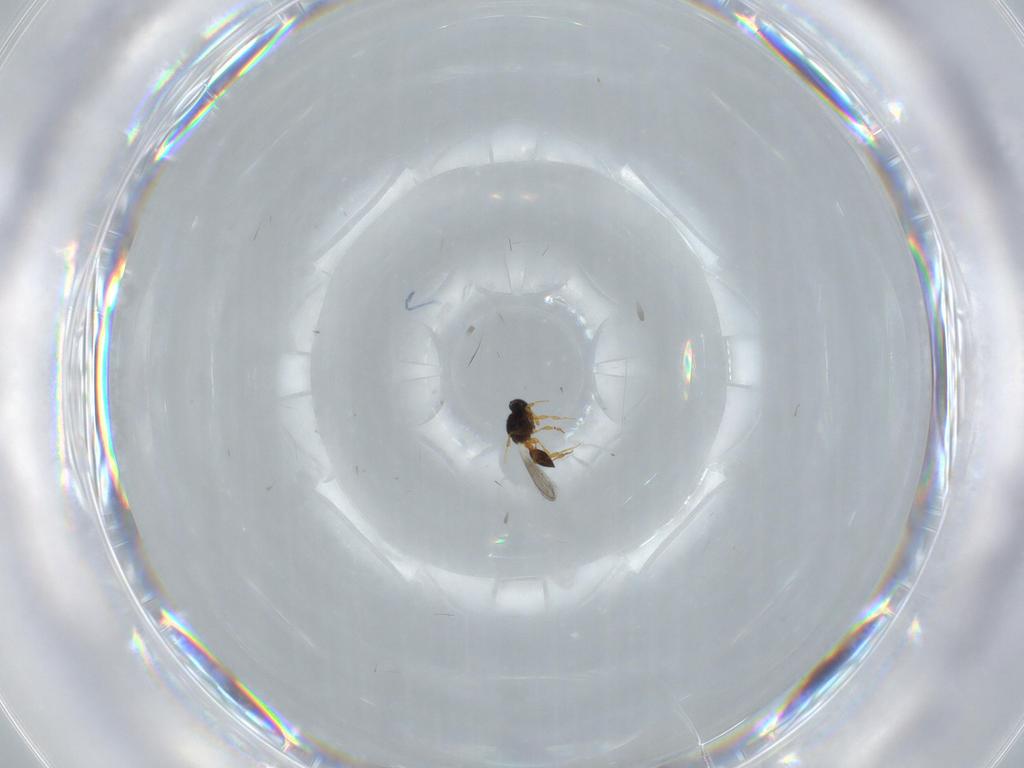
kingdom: Animalia
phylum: Arthropoda
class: Insecta
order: Hymenoptera
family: Platygastridae
